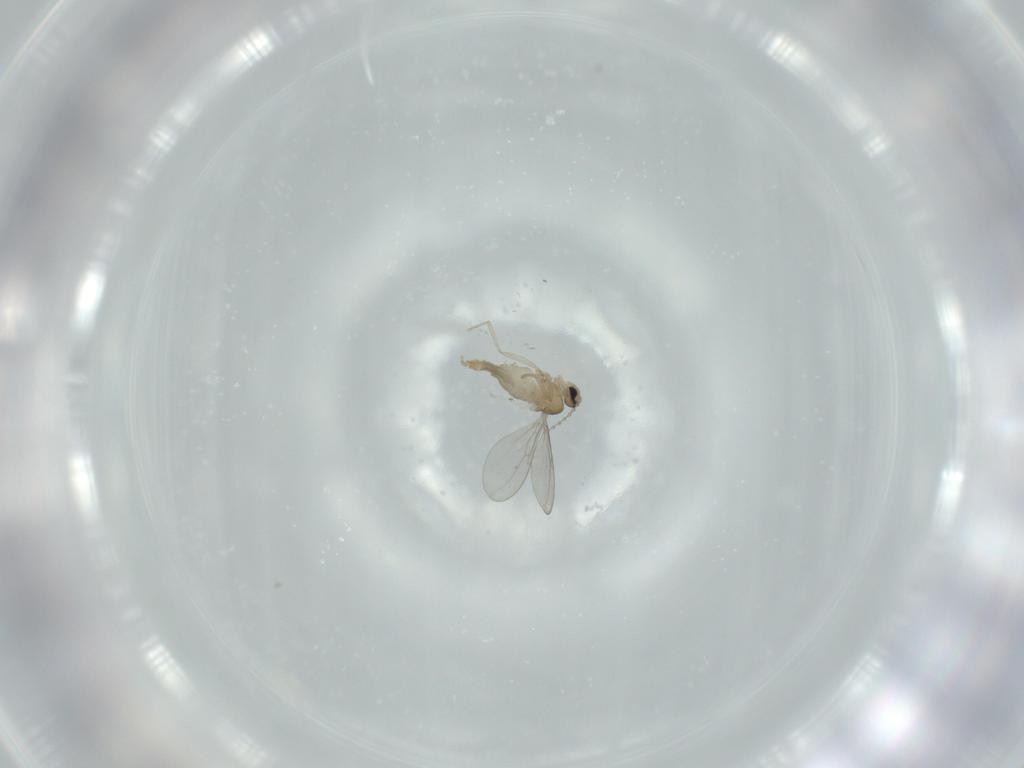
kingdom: Animalia
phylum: Arthropoda
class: Insecta
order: Diptera
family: Cecidomyiidae
